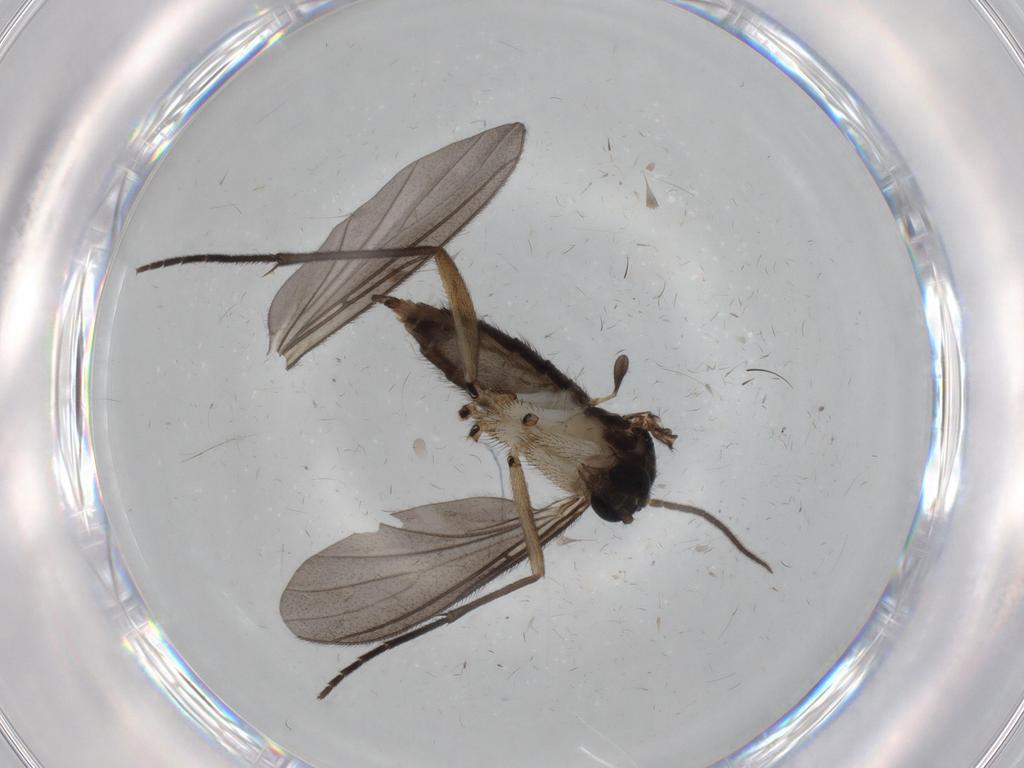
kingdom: Animalia
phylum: Arthropoda
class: Insecta
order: Diptera
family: Sciaridae
